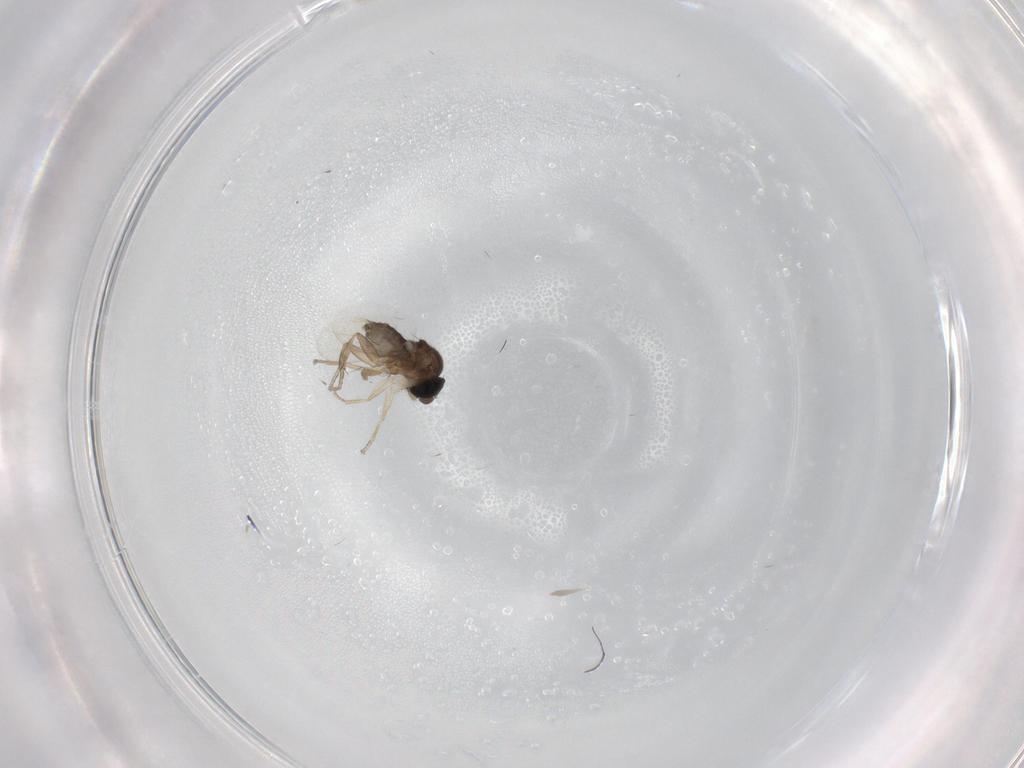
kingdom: Animalia
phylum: Arthropoda
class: Insecta
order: Diptera
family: Phoridae
